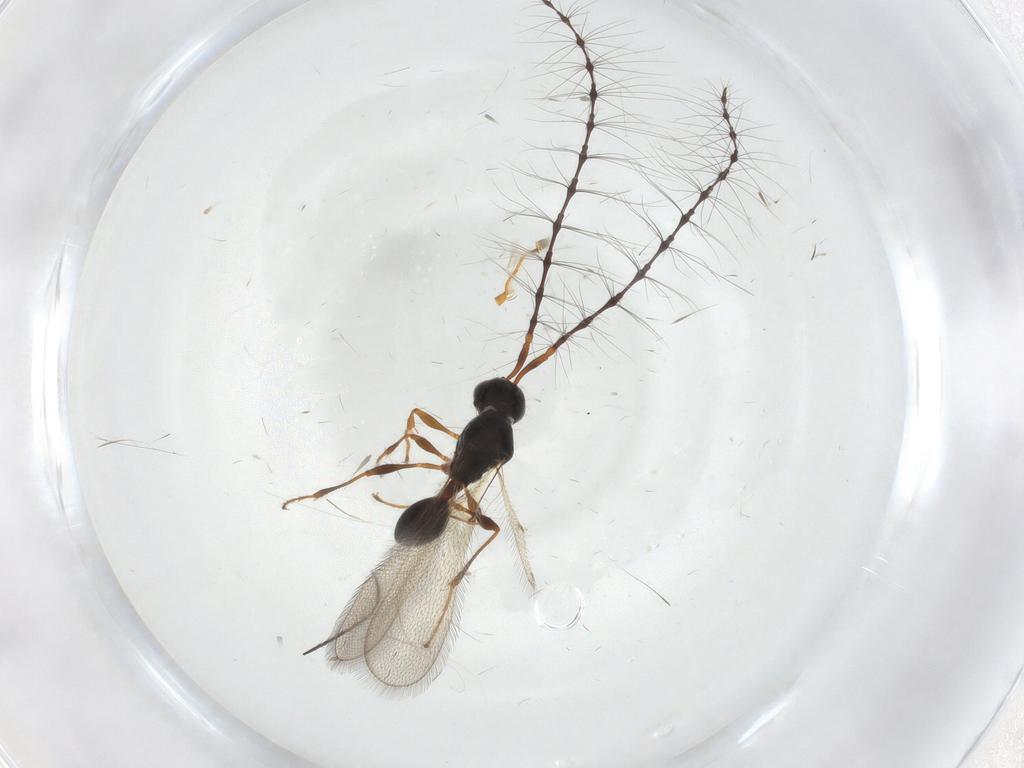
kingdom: Animalia
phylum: Arthropoda
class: Insecta
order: Hymenoptera
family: Diapriidae
